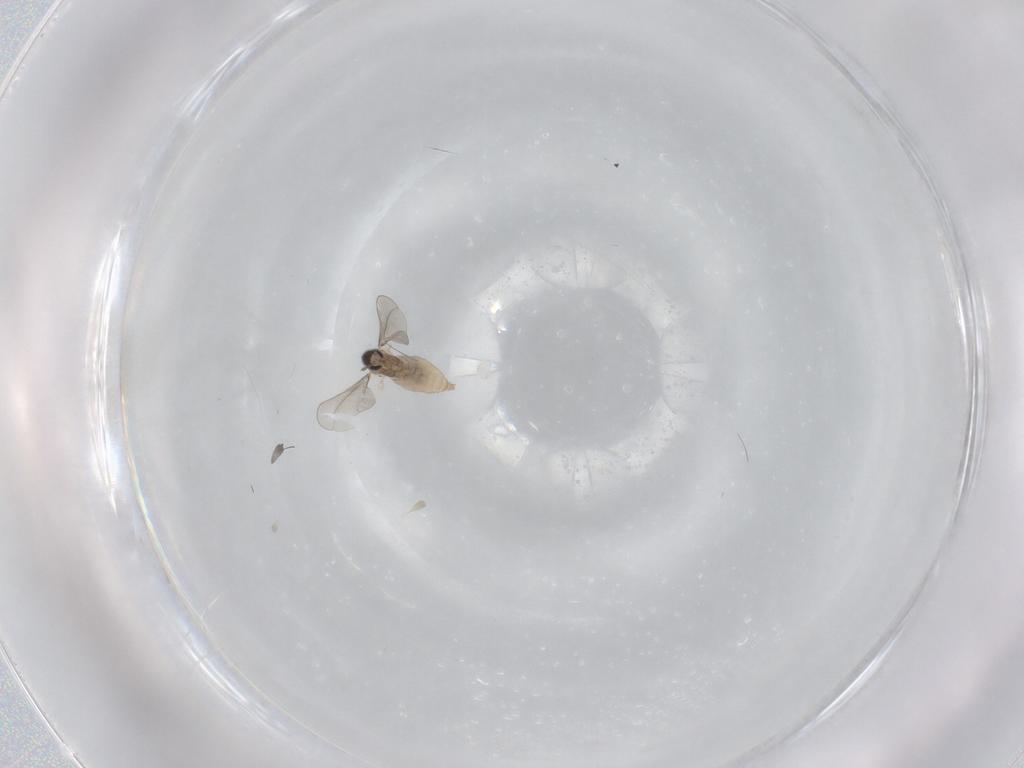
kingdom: Animalia
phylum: Arthropoda
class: Insecta
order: Diptera
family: Cecidomyiidae
